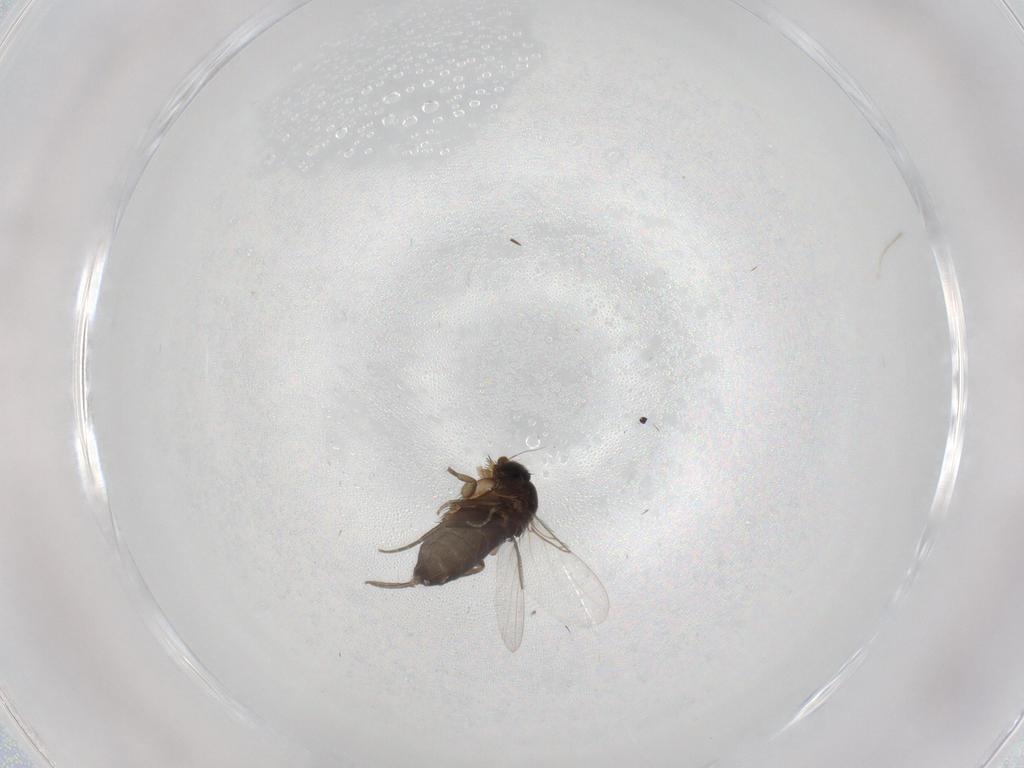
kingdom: Animalia
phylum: Arthropoda
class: Insecta
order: Diptera
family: Phoridae
